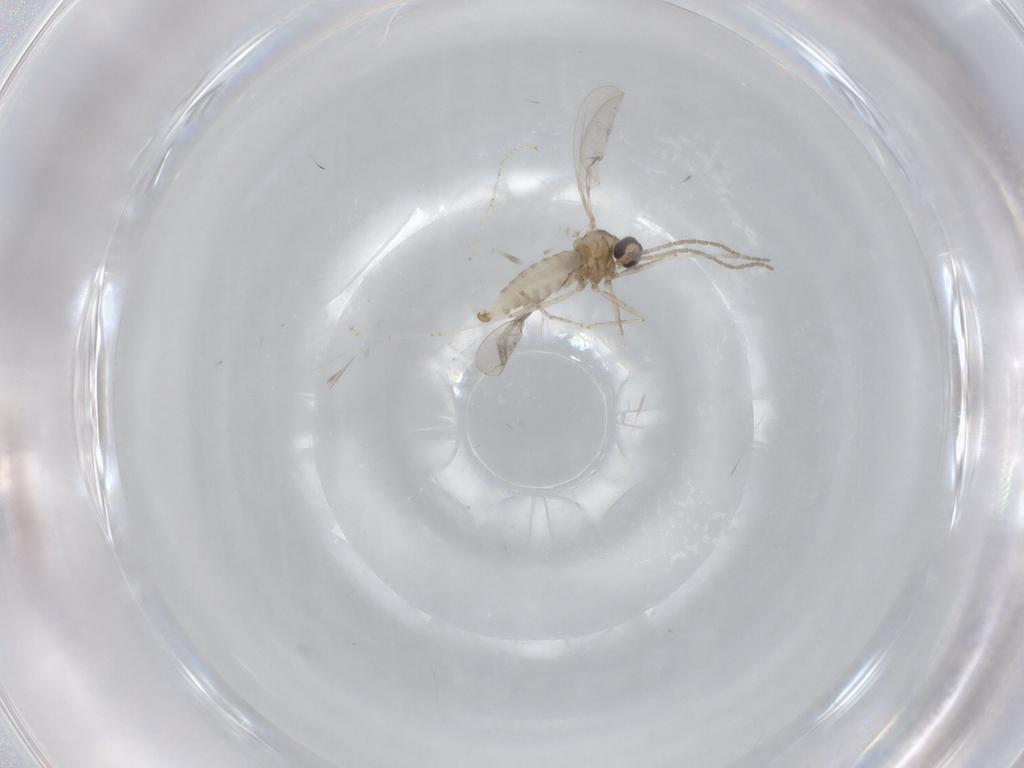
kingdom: Animalia
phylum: Arthropoda
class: Insecta
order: Diptera
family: Cecidomyiidae
